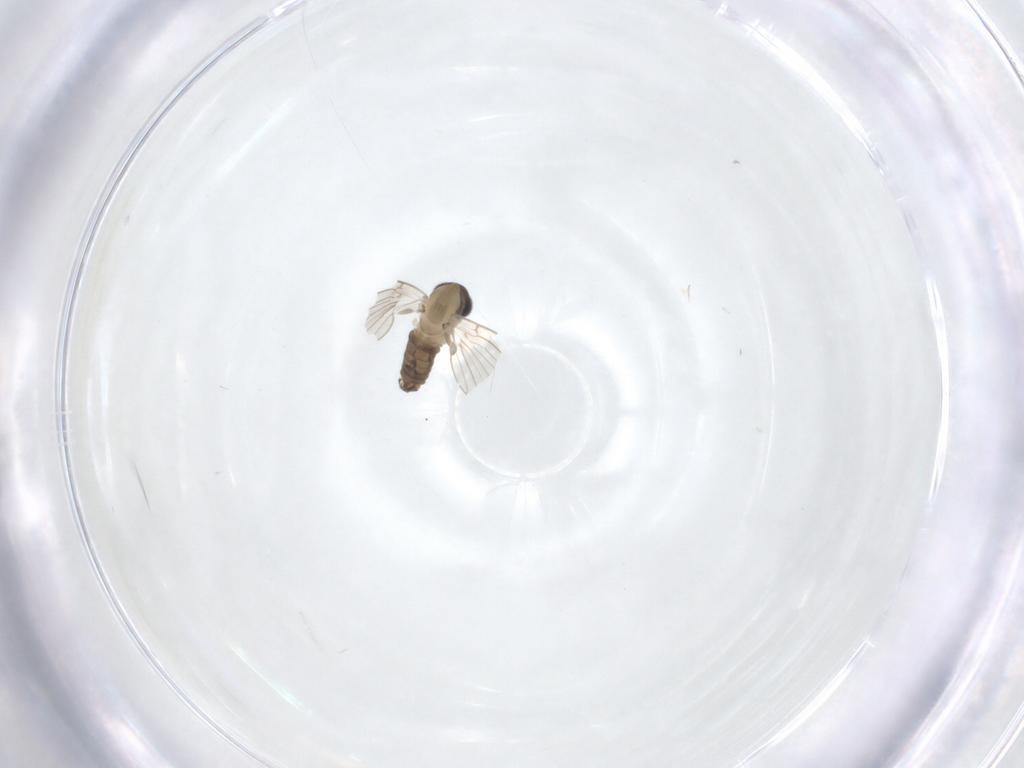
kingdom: Animalia
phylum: Arthropoda
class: Insecta
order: Diptera
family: Psychodidae
